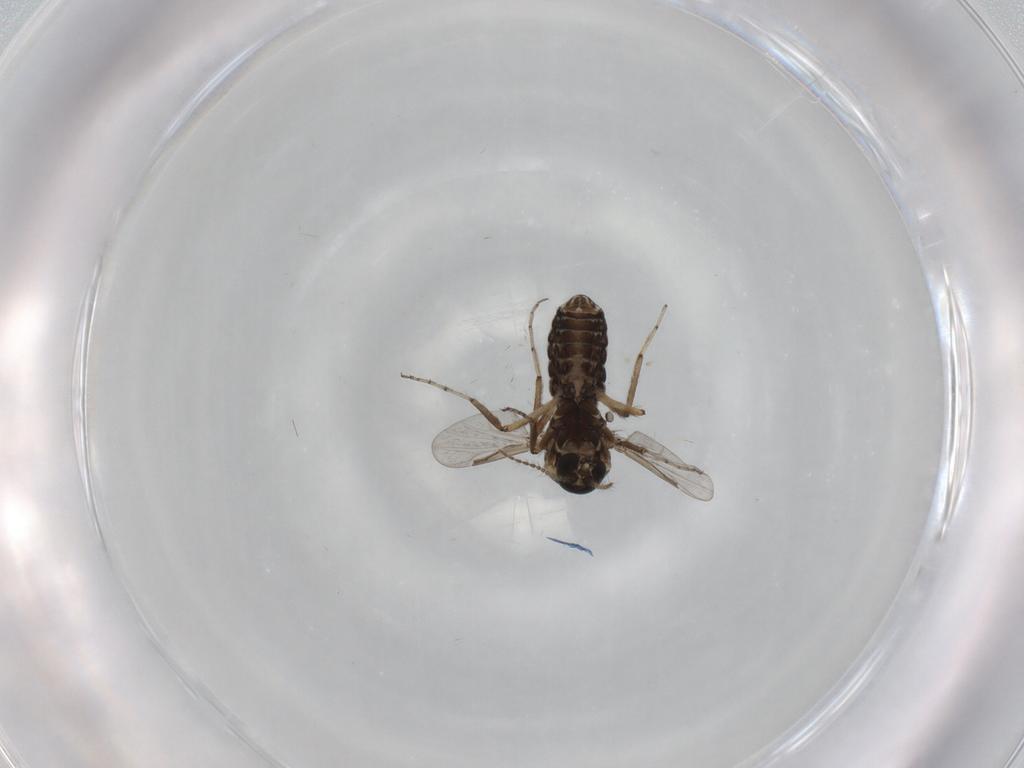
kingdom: Animalia
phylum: Arthropoda
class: Insecta
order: Diptera
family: Ceratopogonidae
